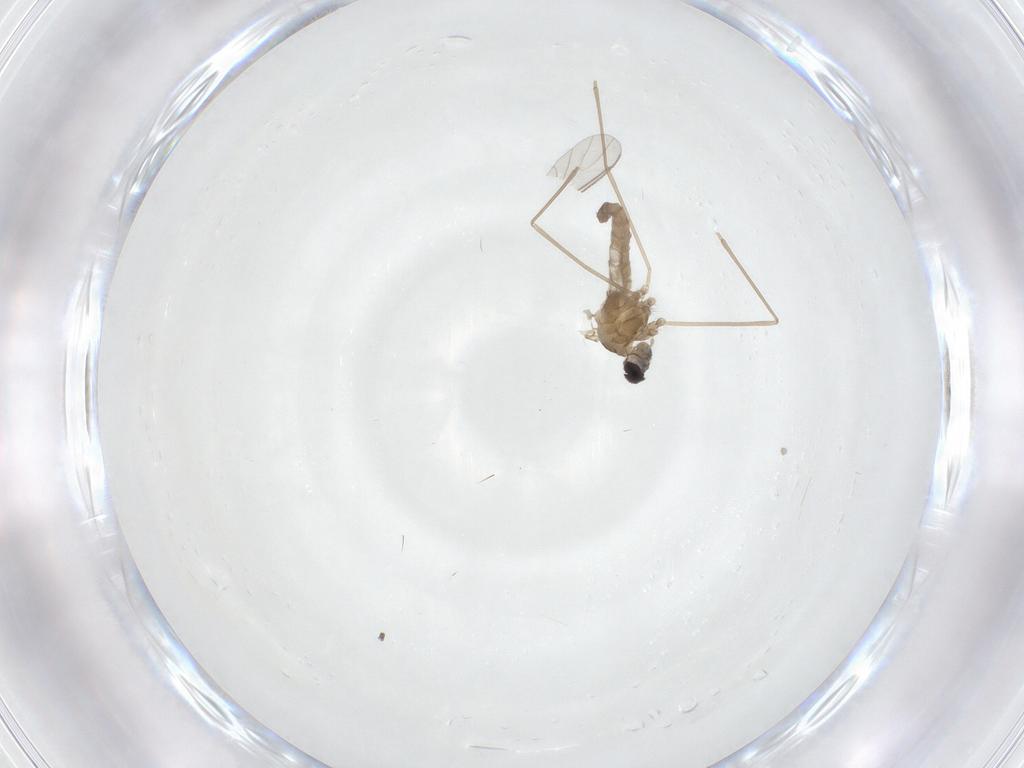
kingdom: Animalia
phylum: Arthropoda
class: Insecta
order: Diptera
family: Sciaridae
